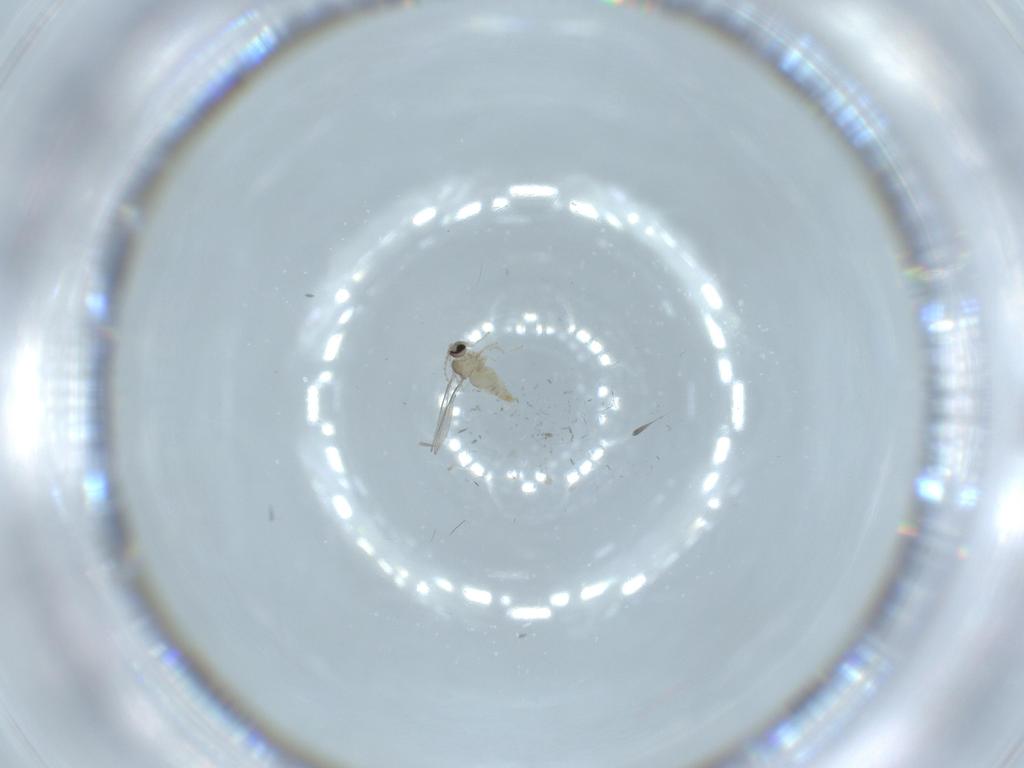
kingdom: Animalia
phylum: Arthropoda
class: Insecta
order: Diptera
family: Cecidomyiidae
